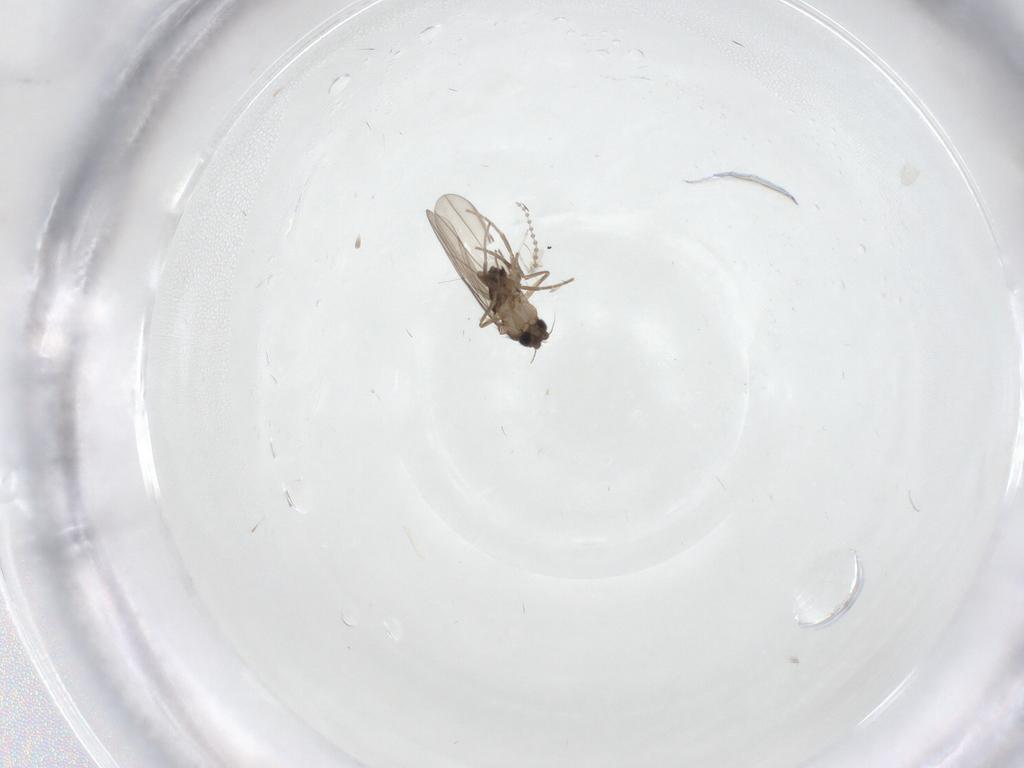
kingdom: Animalia
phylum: Arthropoda
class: Insecta
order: Diptera
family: Phoridae
